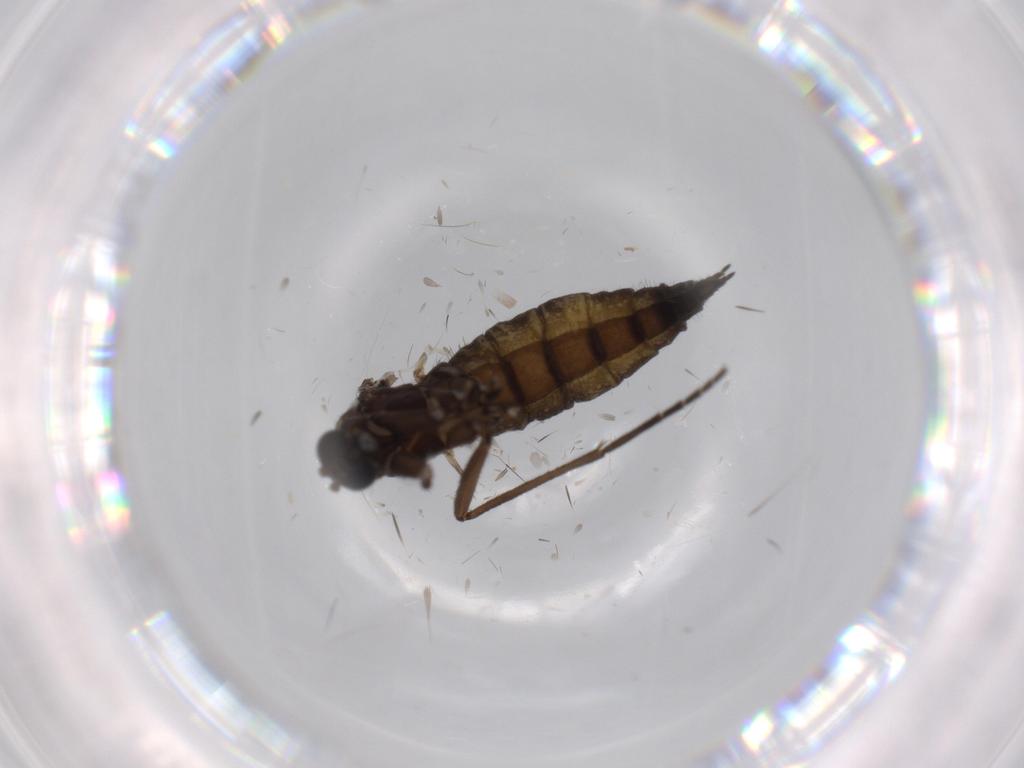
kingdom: Animalia
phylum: Arthropoda
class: Insecta
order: Diptera
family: Sciaridae
